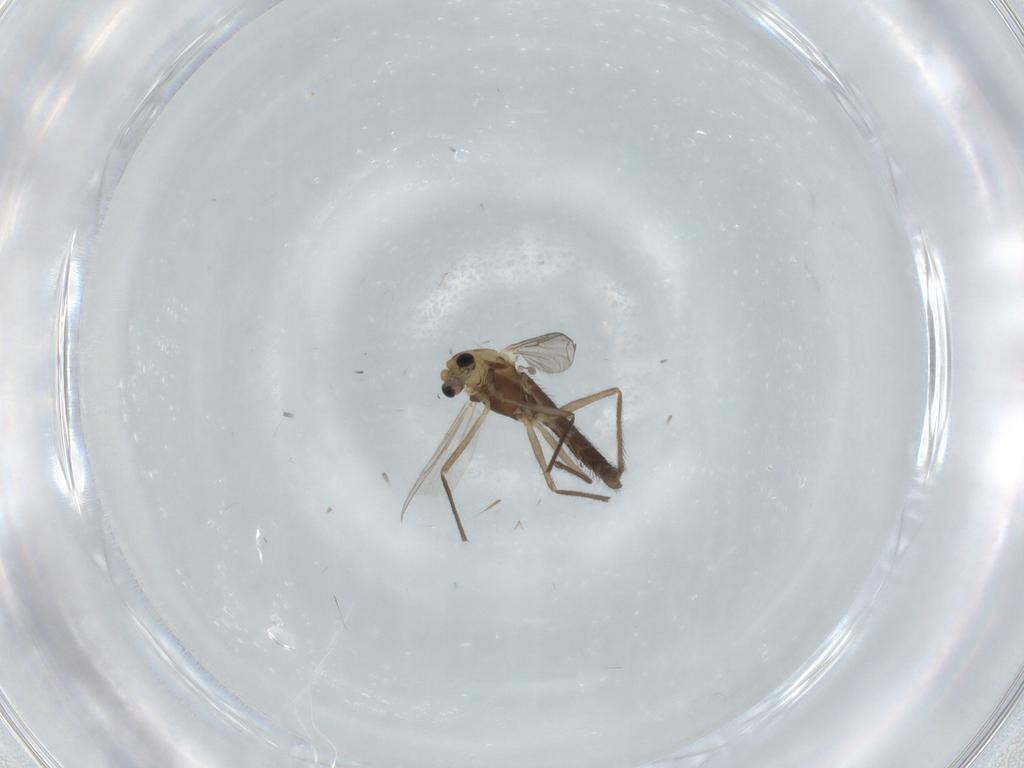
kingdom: Animalia
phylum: Arthropoda
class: Insecta
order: Diptera
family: Chironomidae
